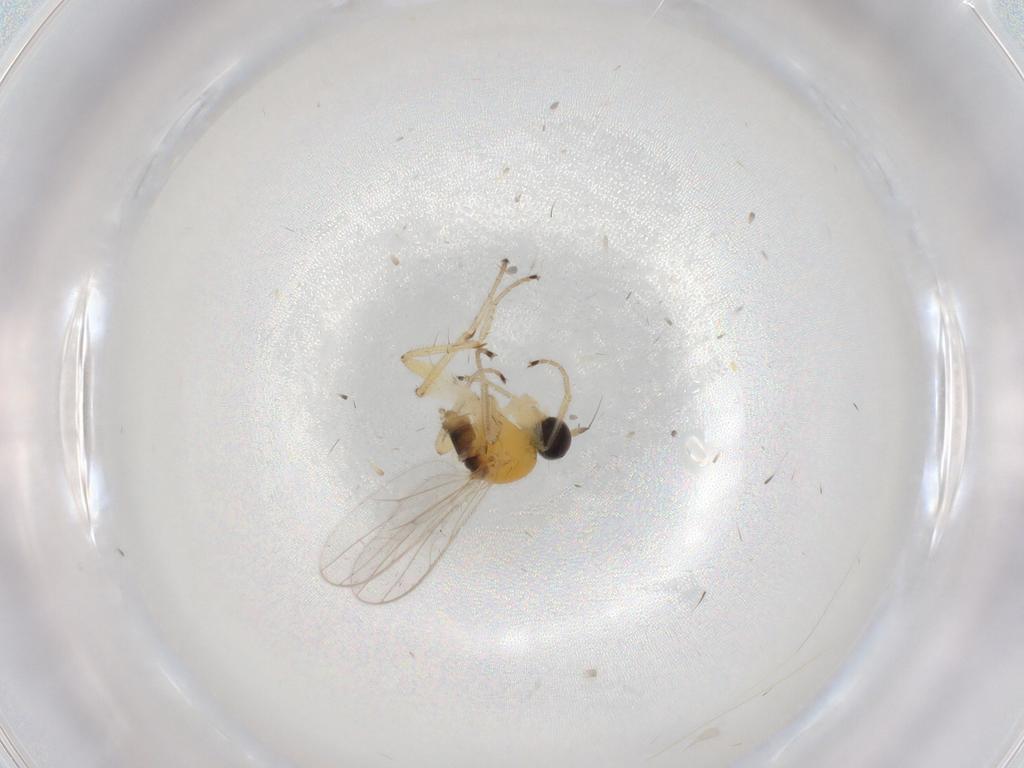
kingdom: Animalia
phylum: Arthropoda
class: Insecta
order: Diptera
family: Hybotidae
